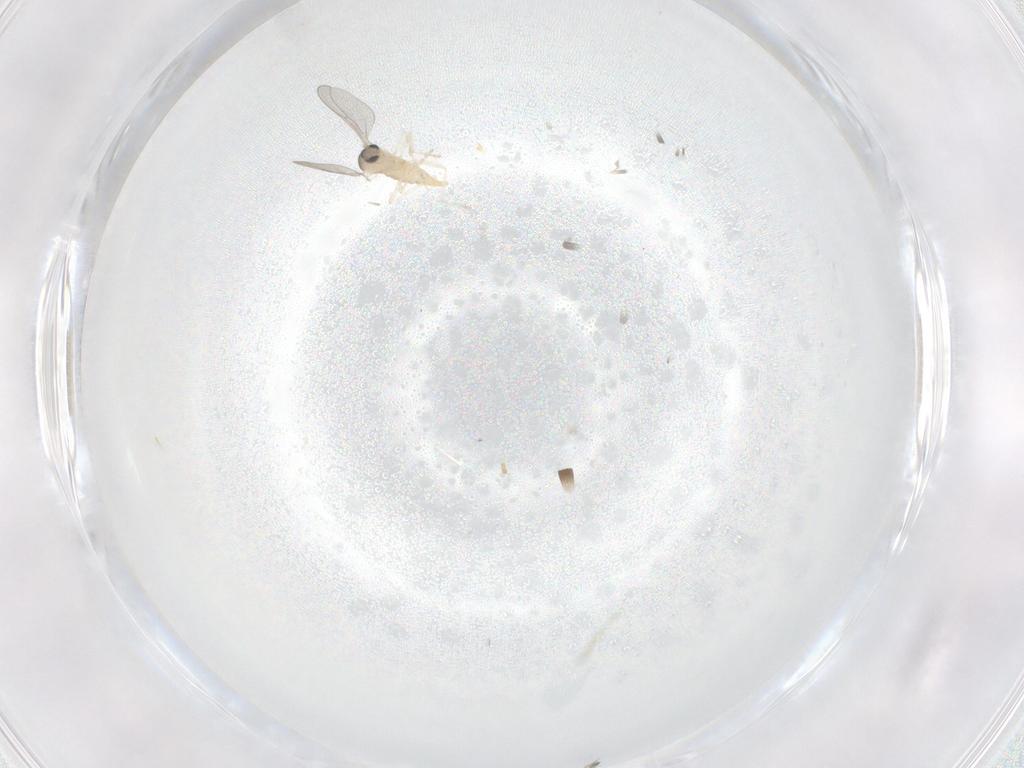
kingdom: Animalia
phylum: Arthropoda
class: Insecta
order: Diptera
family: Cecidomyiidae
